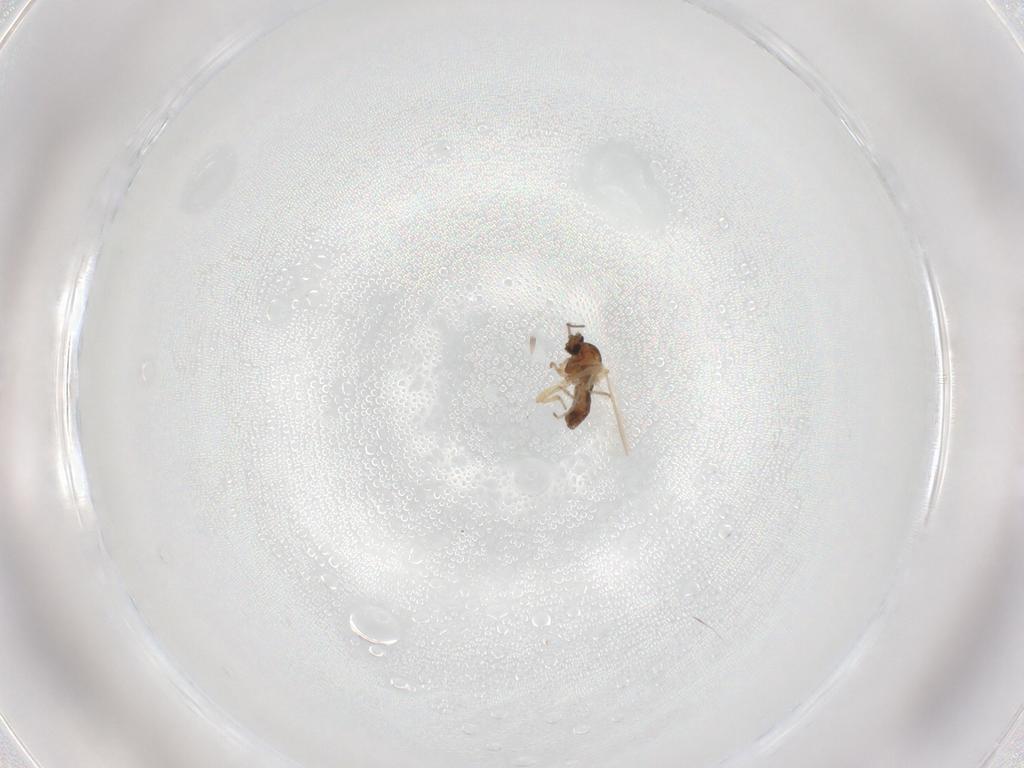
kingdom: Animalia
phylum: Arthropoda
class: Insecta
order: Diptera
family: Ceratopogonidae
